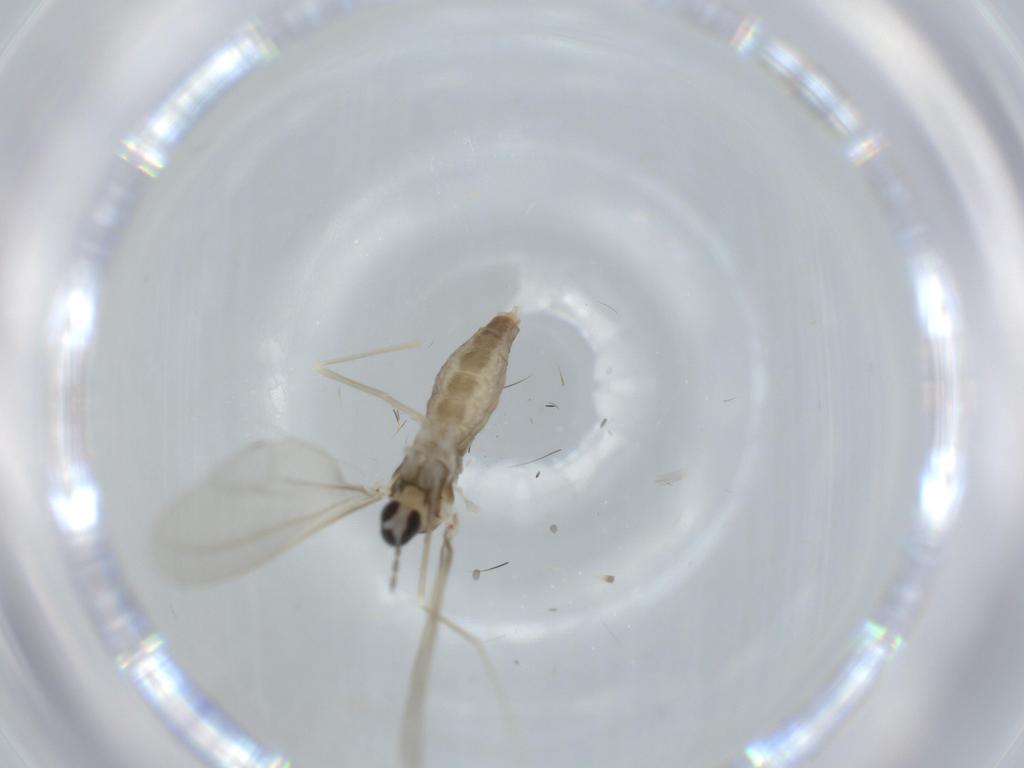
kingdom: Animalia
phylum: Arthropoda
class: Insecta
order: Diptera
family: Cecidomyiidae
